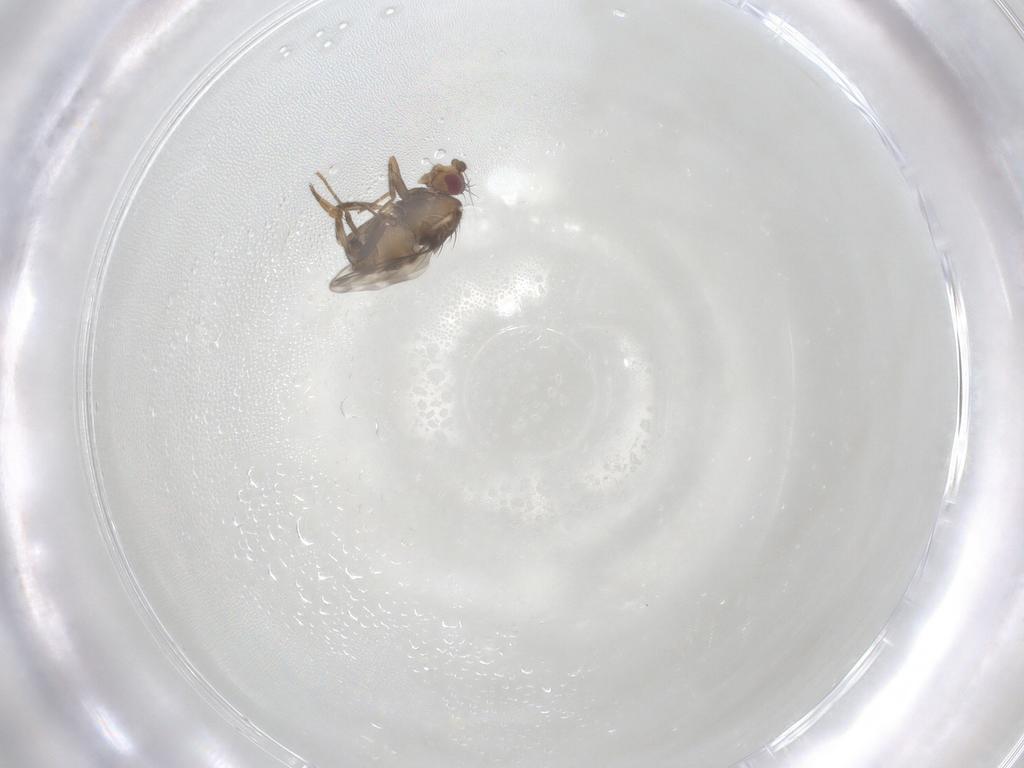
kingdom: Animalia
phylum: Arthropoda
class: Insecta
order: Diptera
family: Sphaeroceridae
